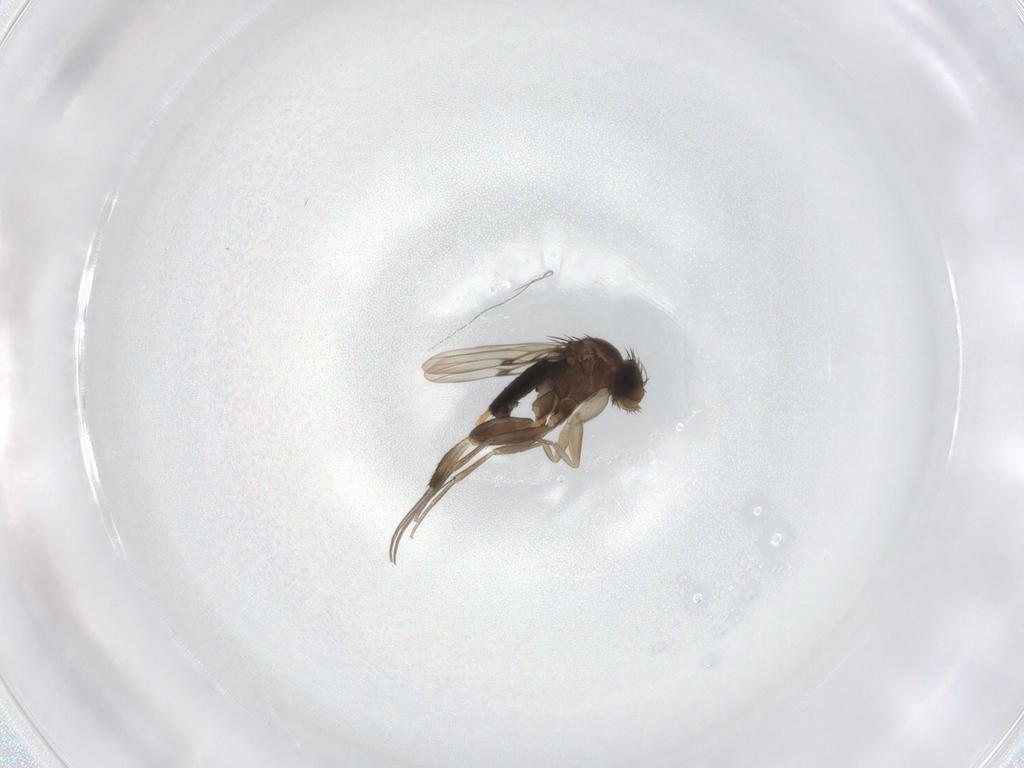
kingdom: Animalia
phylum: Arthropoda
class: Insecta
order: Diptera
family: Phoridae
